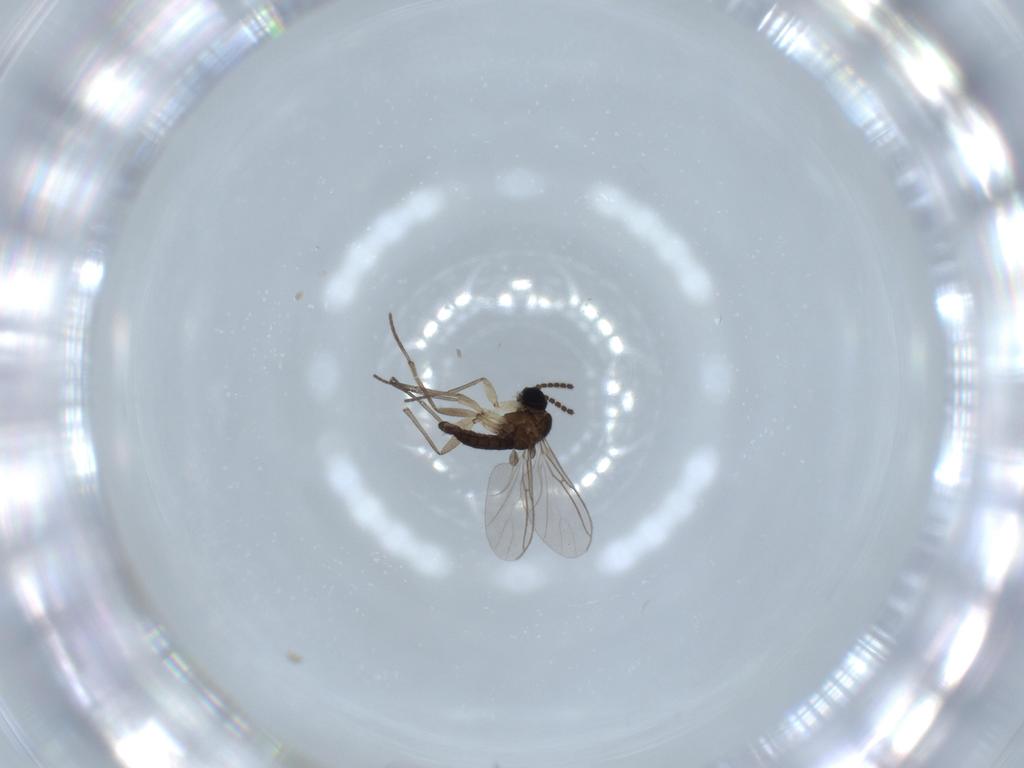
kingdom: Animalia
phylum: Arthropoda
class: Insecta
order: Diptera
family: Sciaridae
